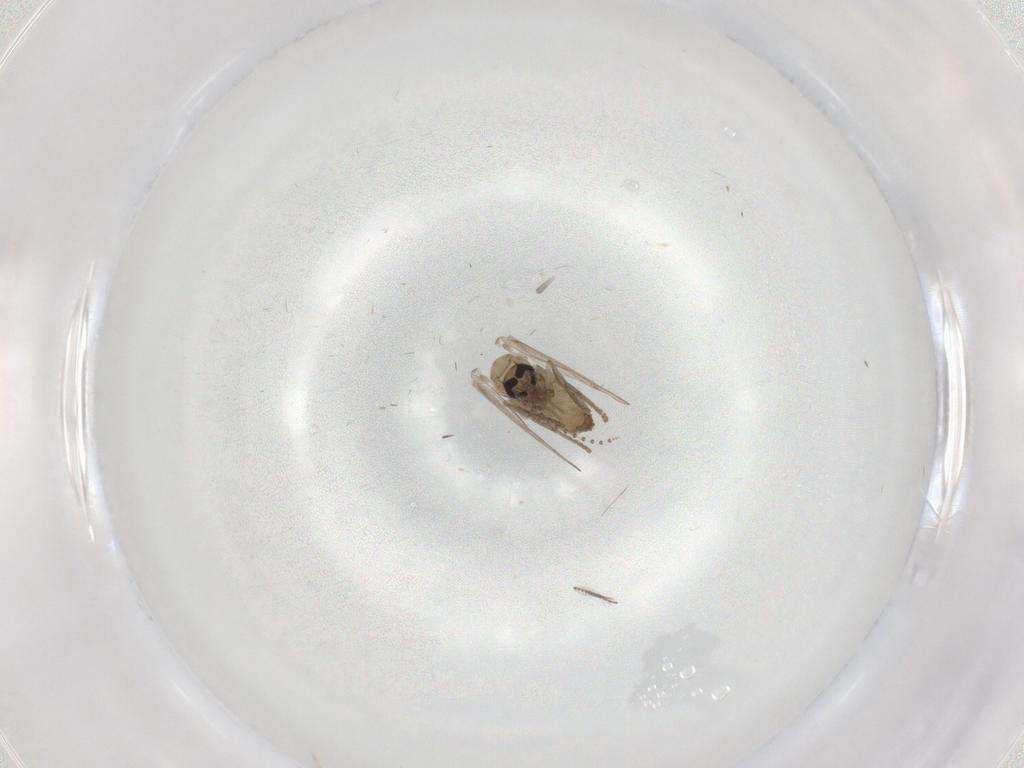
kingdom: Animalia
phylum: Arthropoda
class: Insecta
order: Diptera
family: Psychodidae
